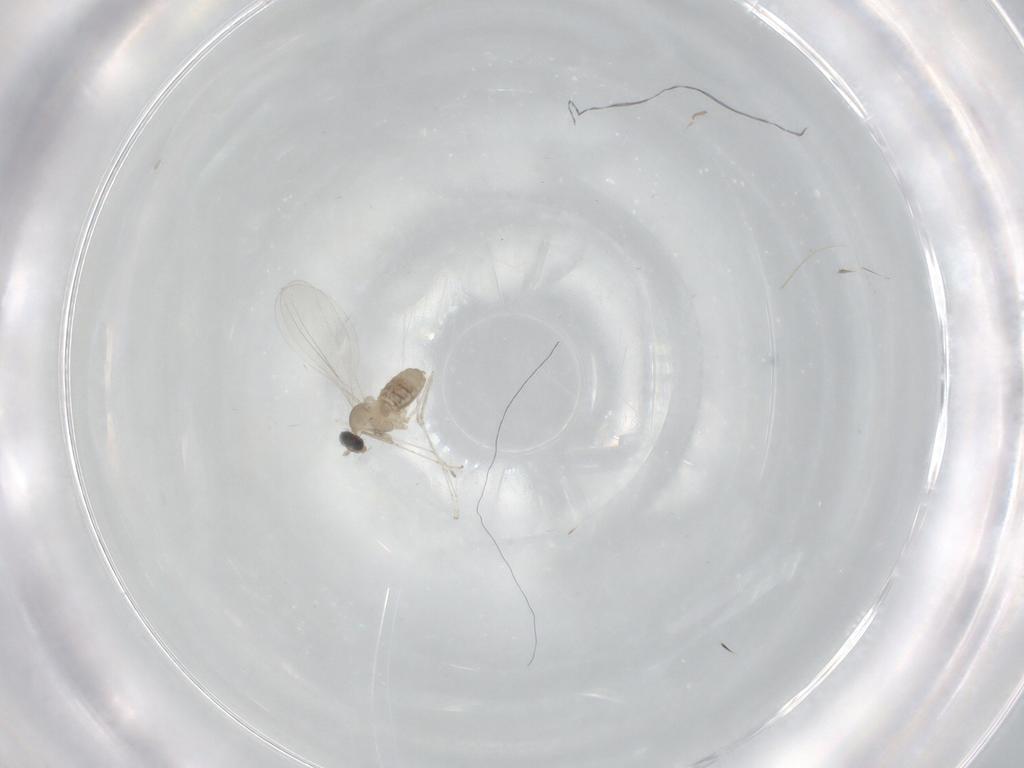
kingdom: Animalia
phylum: Arthropoda
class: Insecta
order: Diptera
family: Cecidomyiidae
